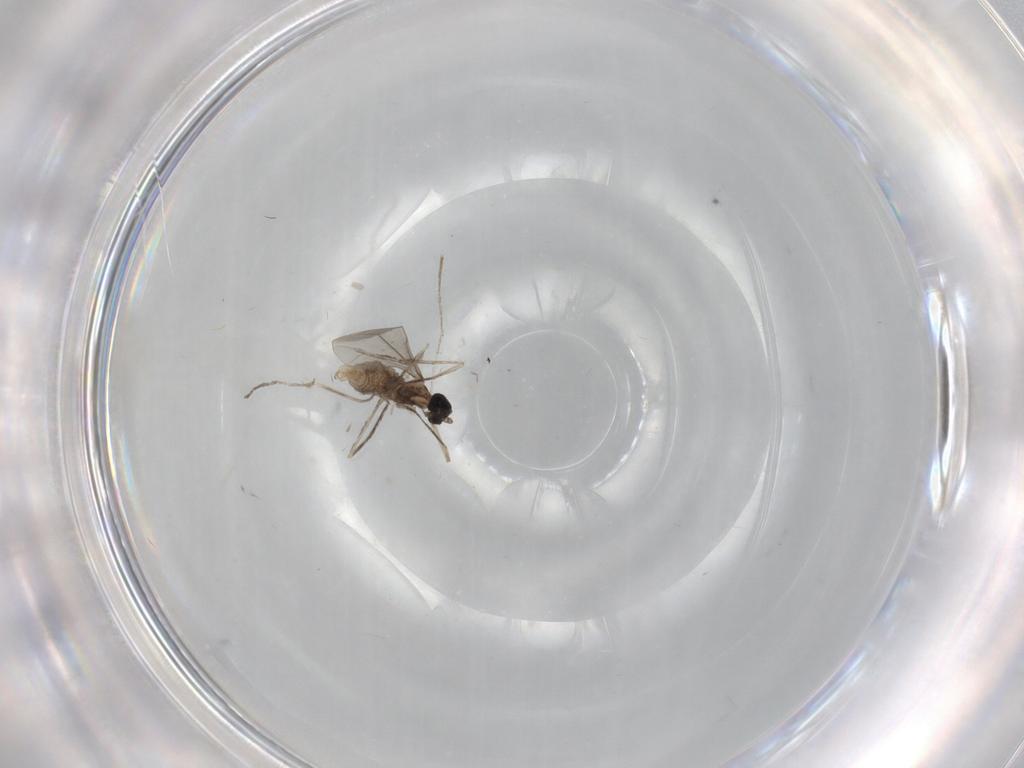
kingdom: Animalia
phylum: Arthropoda
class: Insecta
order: Diptera
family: Cecidomyiidae
